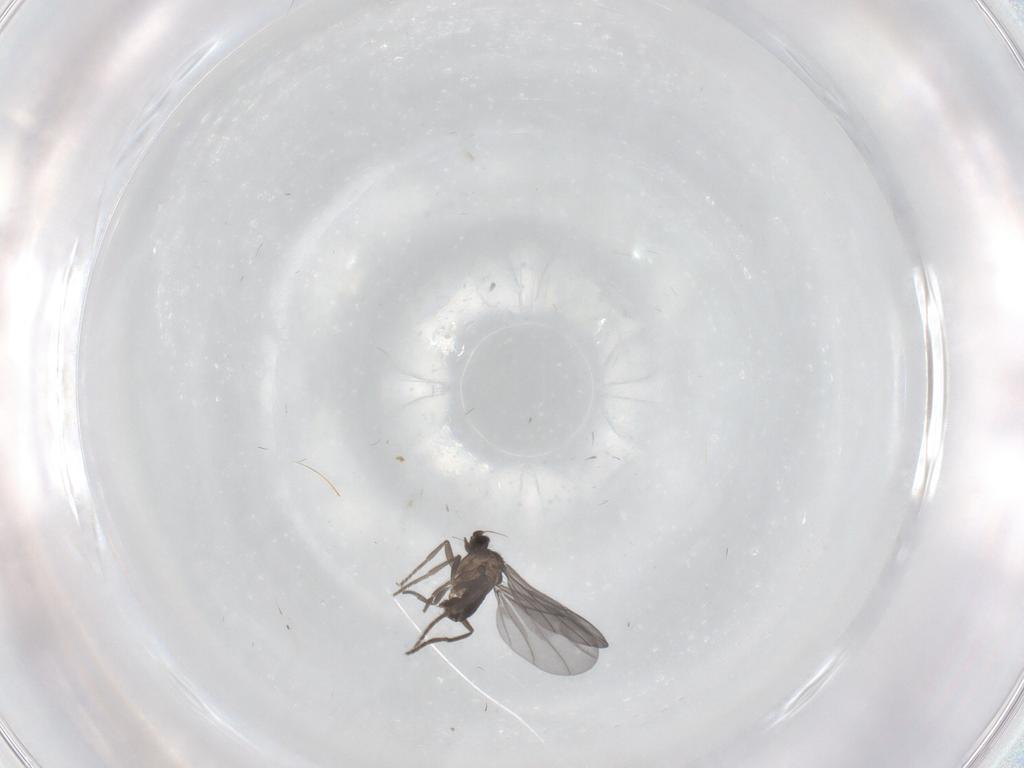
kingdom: Animalia
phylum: Arthropoda
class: Insecta
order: Diptera
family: Phoridae
